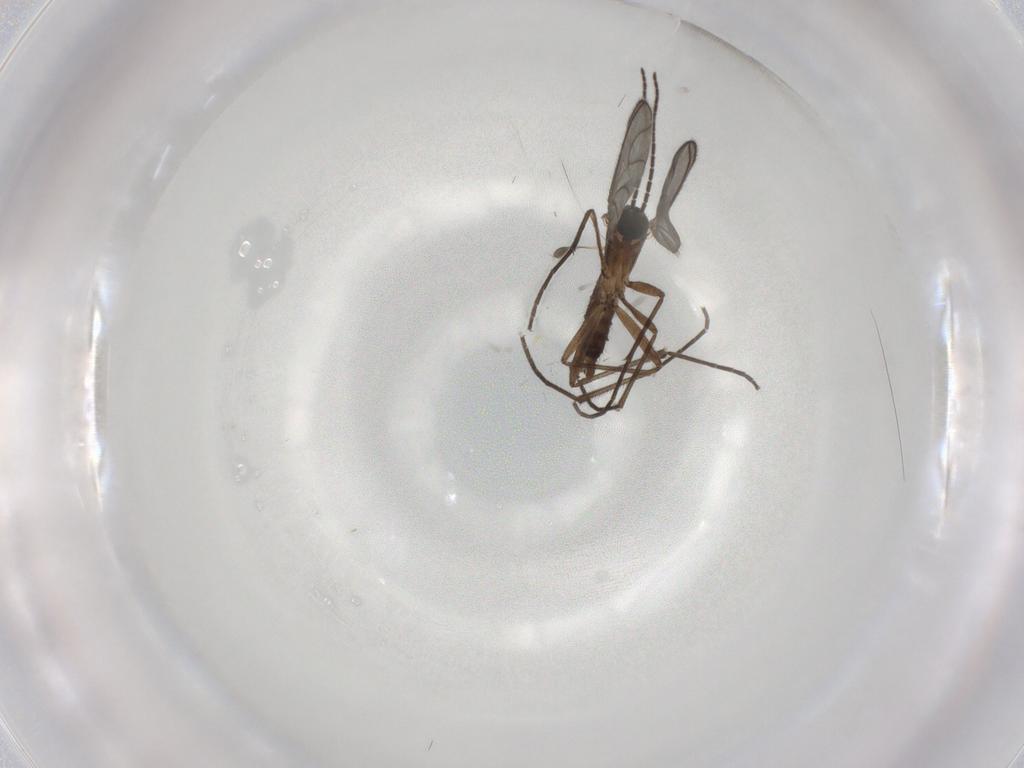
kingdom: Animalia
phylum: Arthropoda
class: Insecta
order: Diptera
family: Sciaridae
